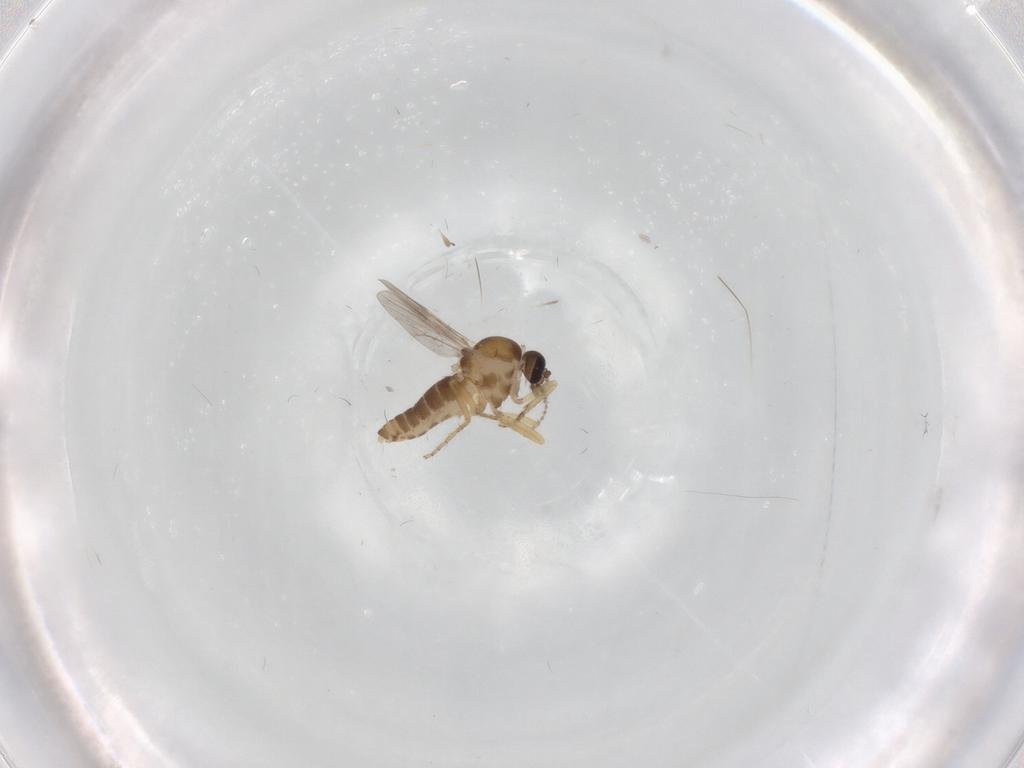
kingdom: Animalia
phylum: Arthropoda
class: Insecta
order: Diptera
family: Ceratopogonidae
